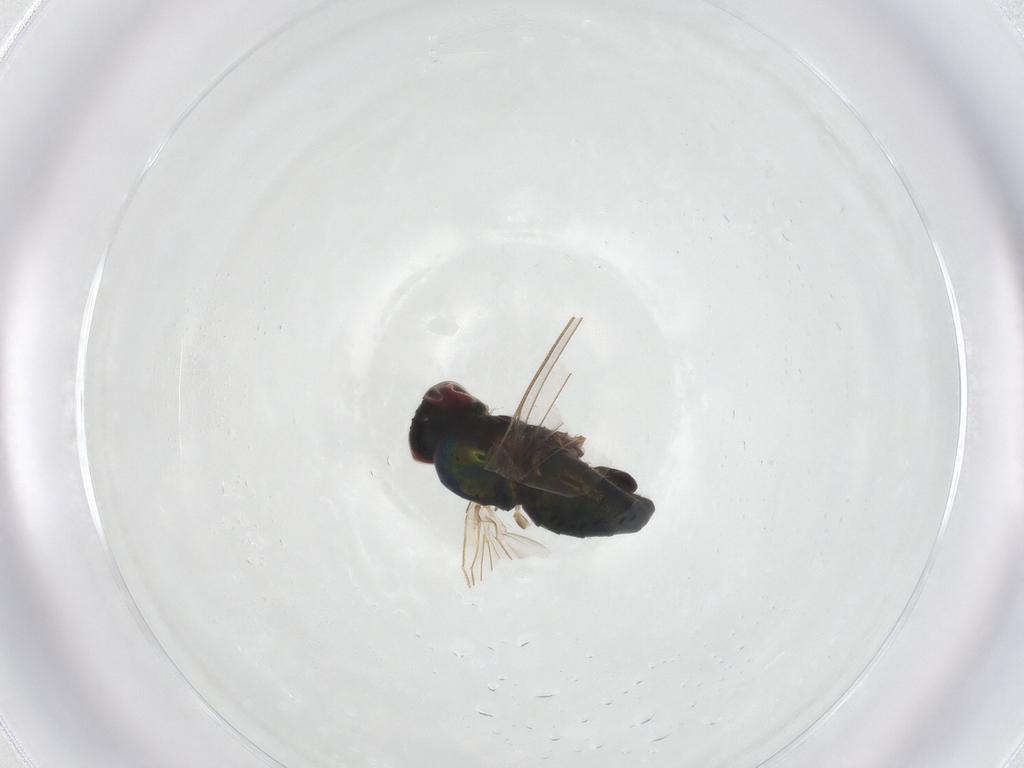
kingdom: Animalia
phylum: Arthropoda
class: Insecta
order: Diptera
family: Dolichopodidae
